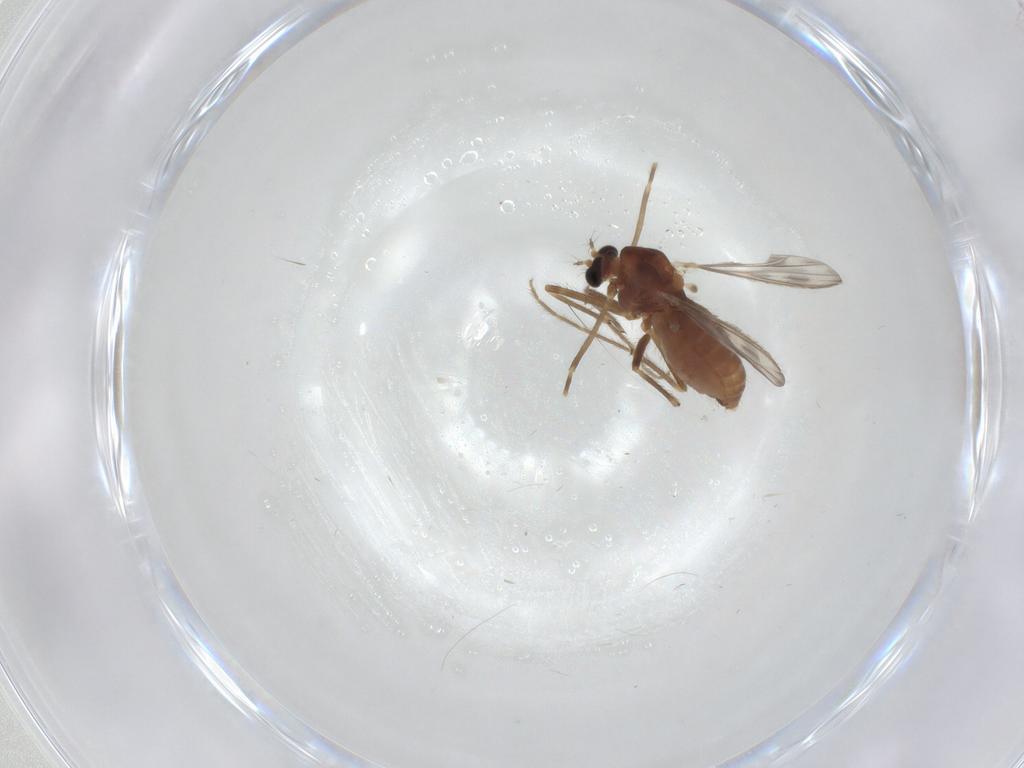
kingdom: Animalia
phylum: Arthropoda
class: Insecta
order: Diptera
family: Chironomidae
